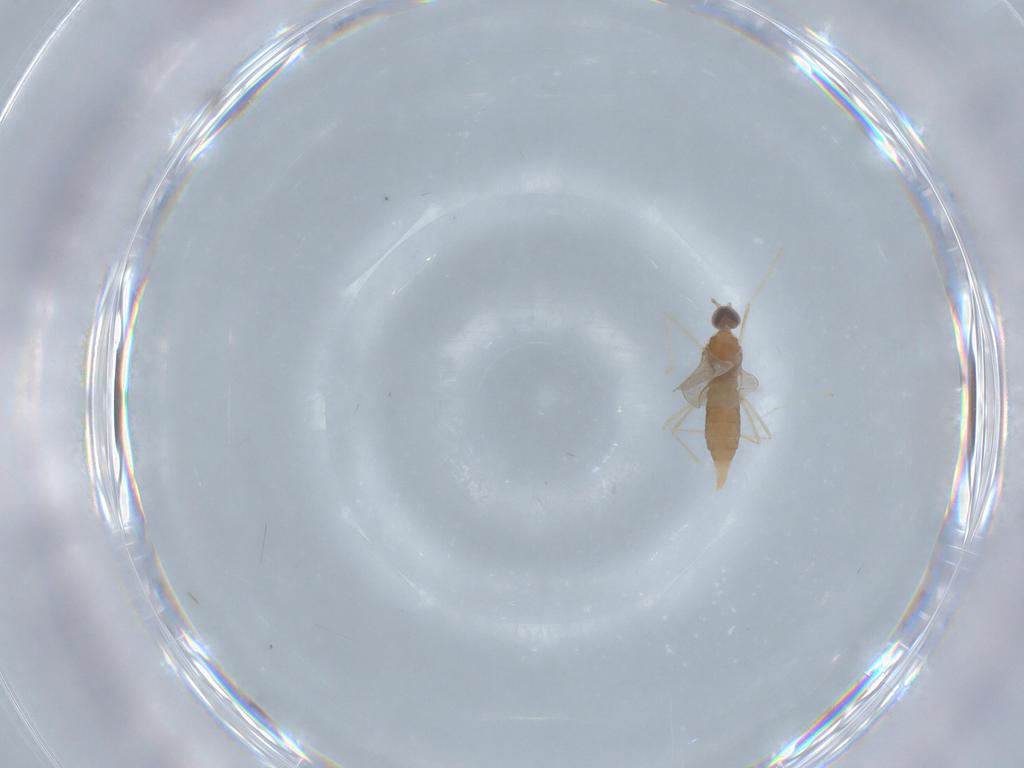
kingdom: Animalia
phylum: Arthropoda
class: Insecta
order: Diptera
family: Cecidomyiidae
